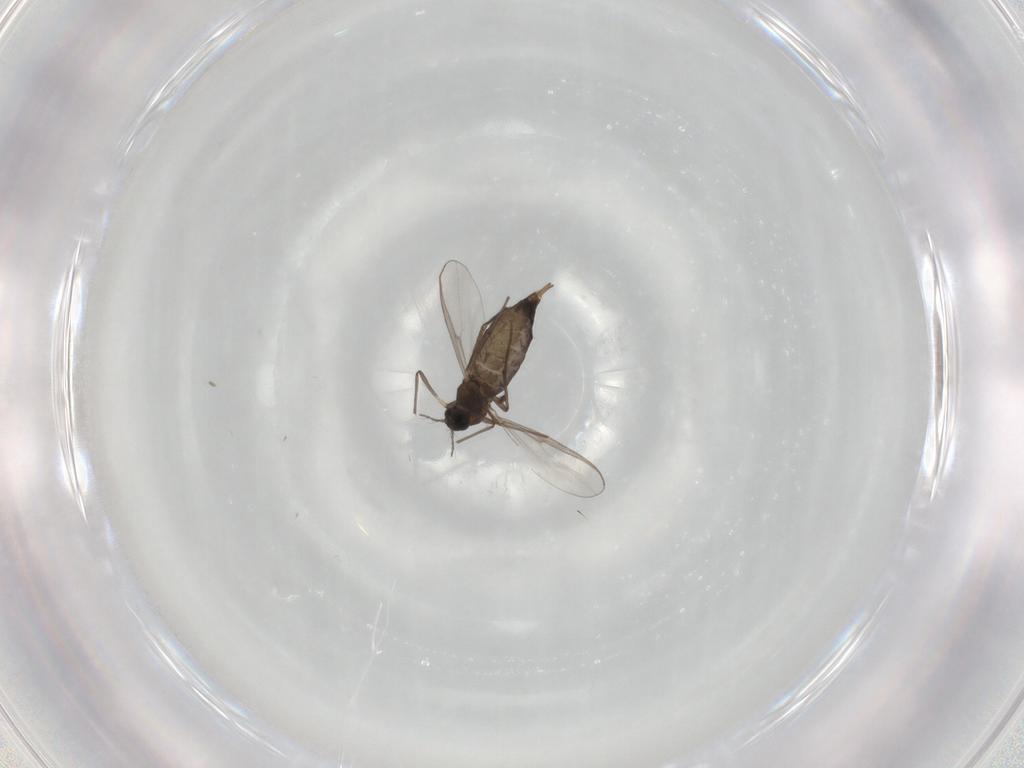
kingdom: Animalia
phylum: Arthropoda
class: Insecta
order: Diptera
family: Chironomidae
